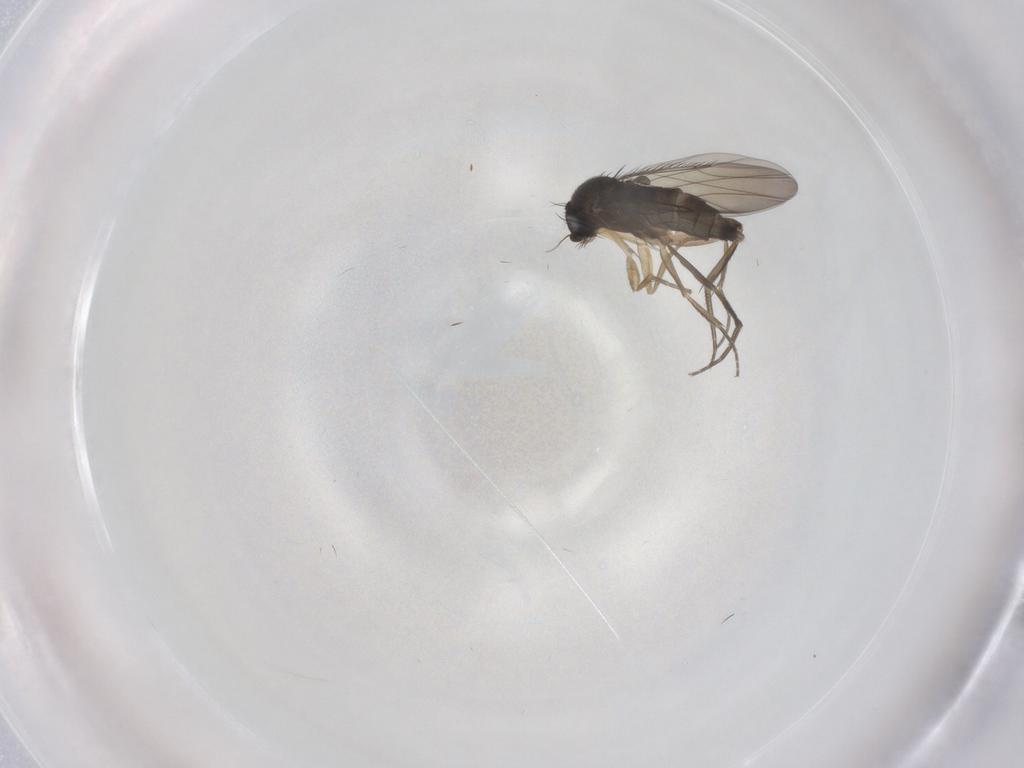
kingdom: Animalia
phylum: Arthropoda
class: Insecta
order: Diptera
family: Phoridae
